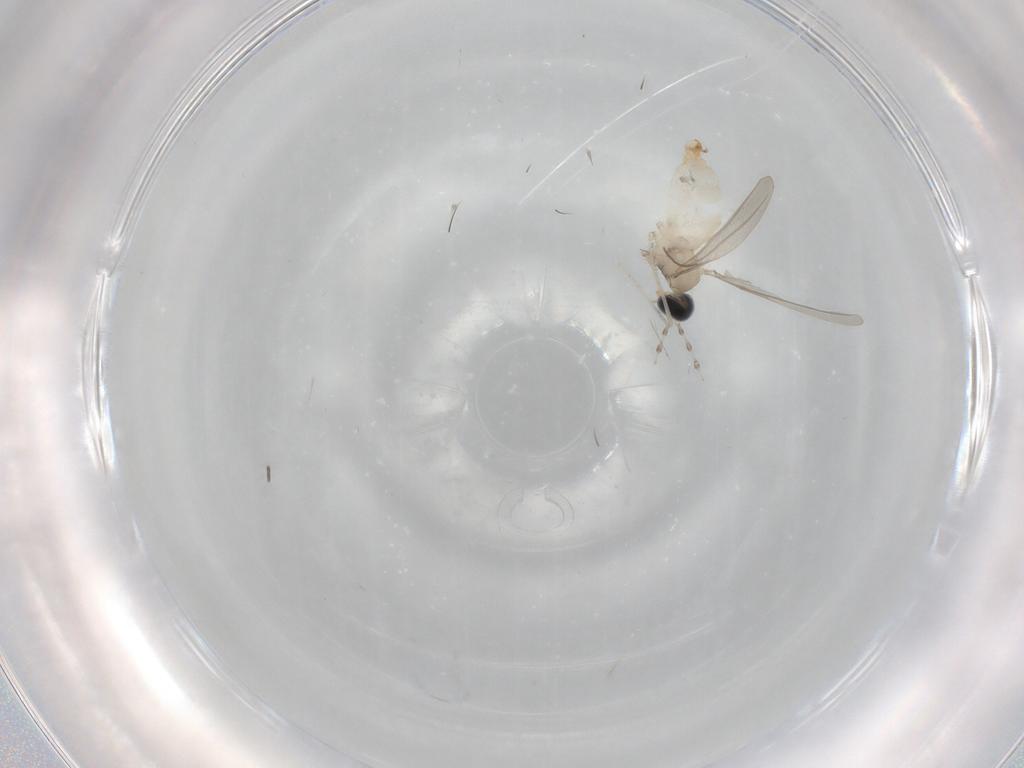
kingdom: Animalia
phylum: Arthropoda
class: Insecta
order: Diptera
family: Cecidomyiidae
